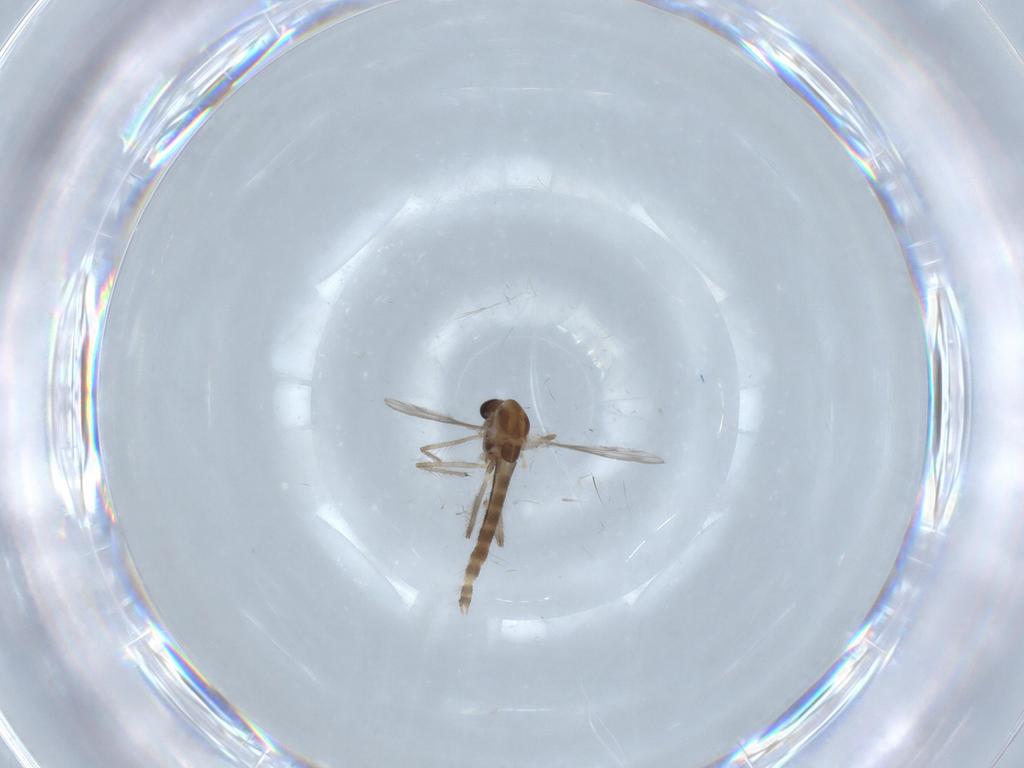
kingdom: Animalia
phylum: Arthropoda
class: Insecta
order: Diptera
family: Chironomidae
